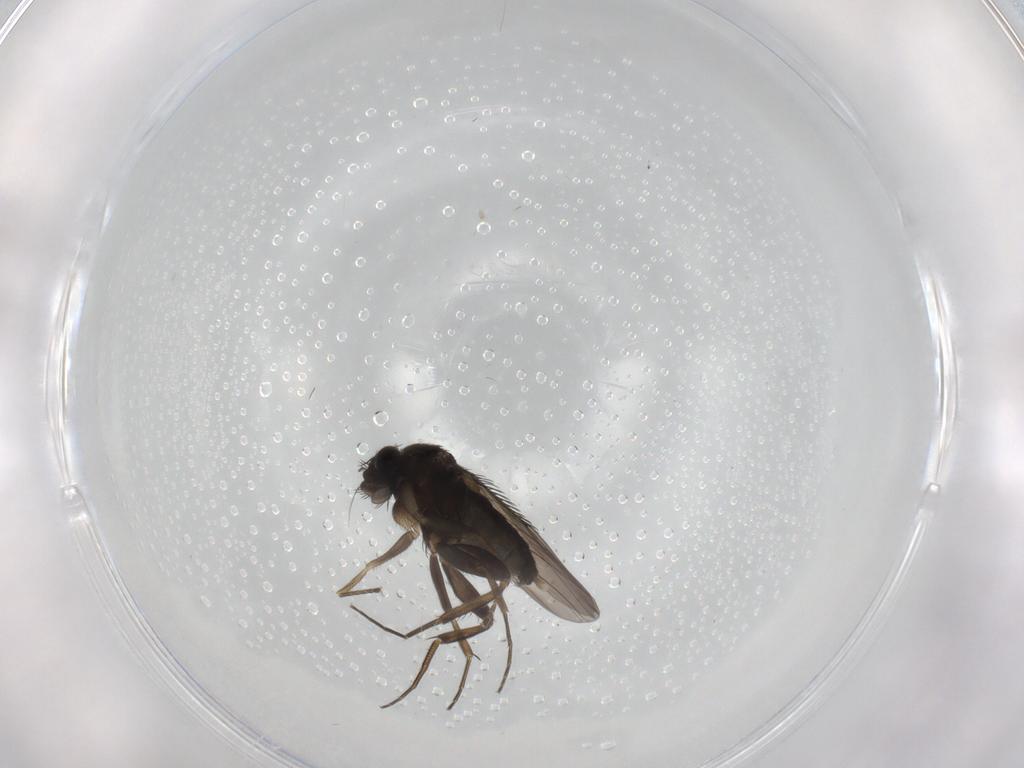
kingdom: Animalia
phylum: Arthropoda
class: Insecta
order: Diptera
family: Phoridae
